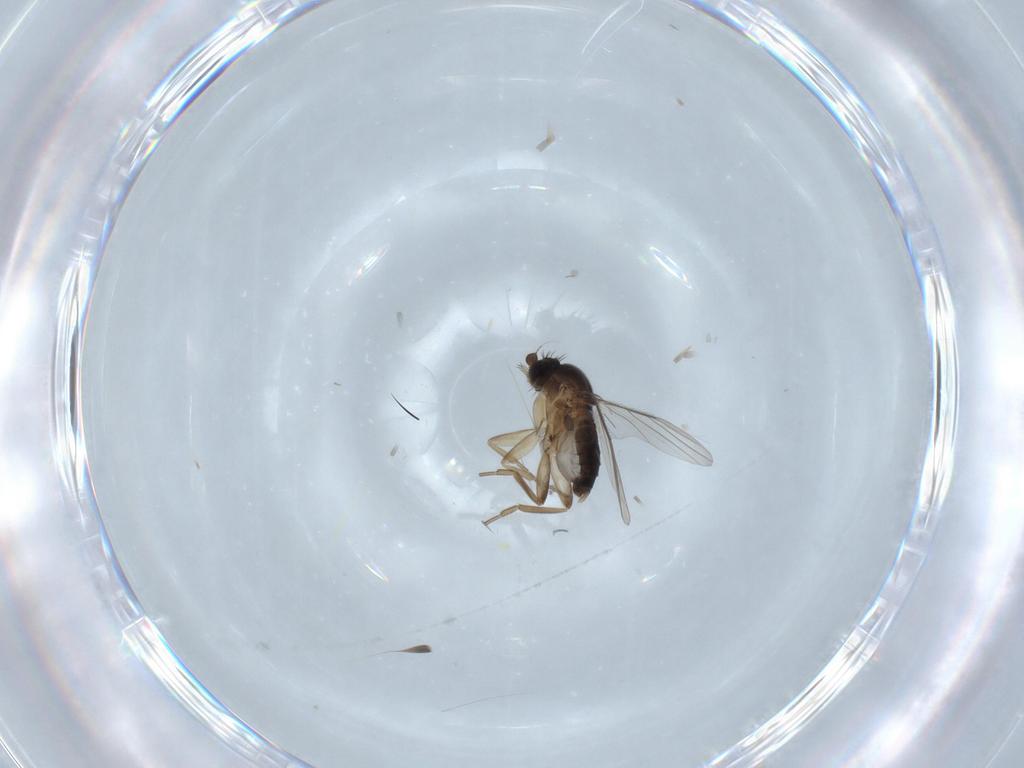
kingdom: Animalia
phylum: Arthropoda
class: Insecta
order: Diptera
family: Phoridae
